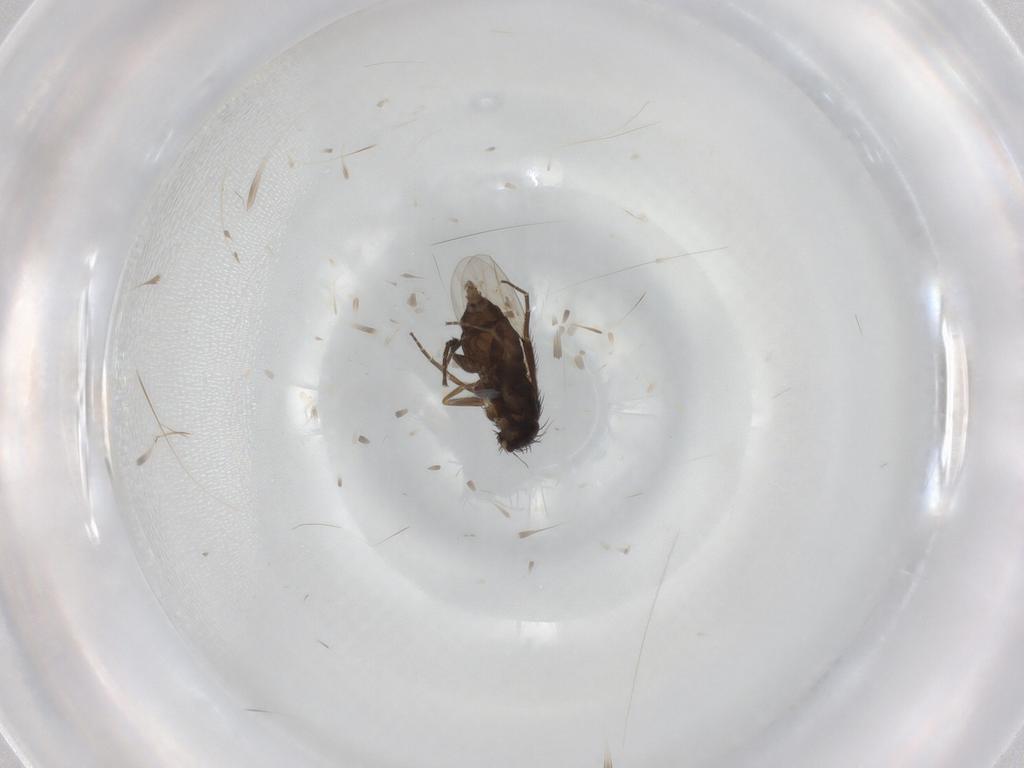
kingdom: Animalia
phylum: Arthropoda
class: Insecta
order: Diptera
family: Phoridae
